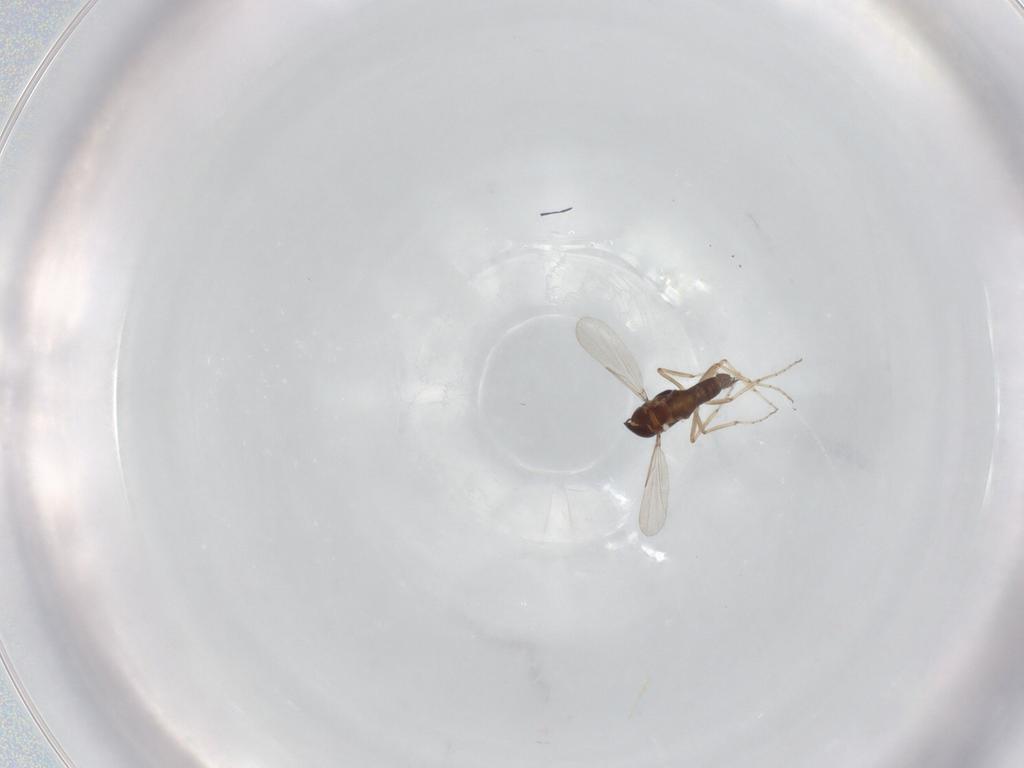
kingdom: Animalia
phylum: Arthropoda
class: Insecta
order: Diptera
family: Ceratopogonidae
